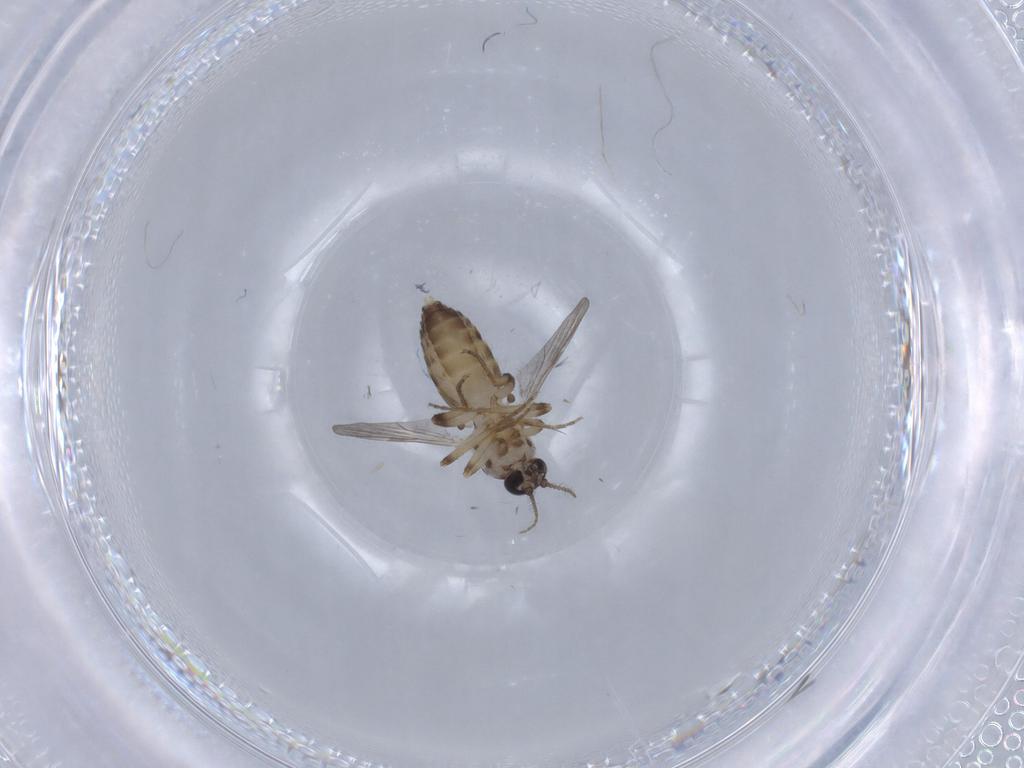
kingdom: Animalia
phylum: Arthropoda
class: Insecta
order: Diptera
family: Ceratopogonidae
